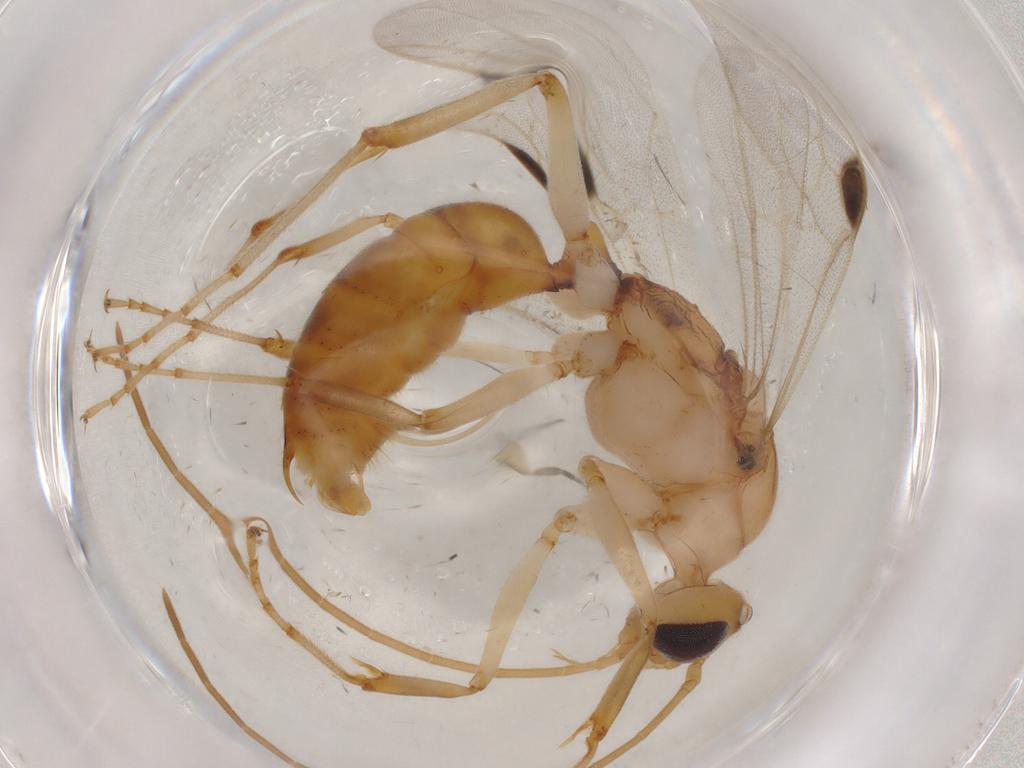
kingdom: Animalia
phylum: Arthropoda
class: Insecta
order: Hymenoptera
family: Formicidae
